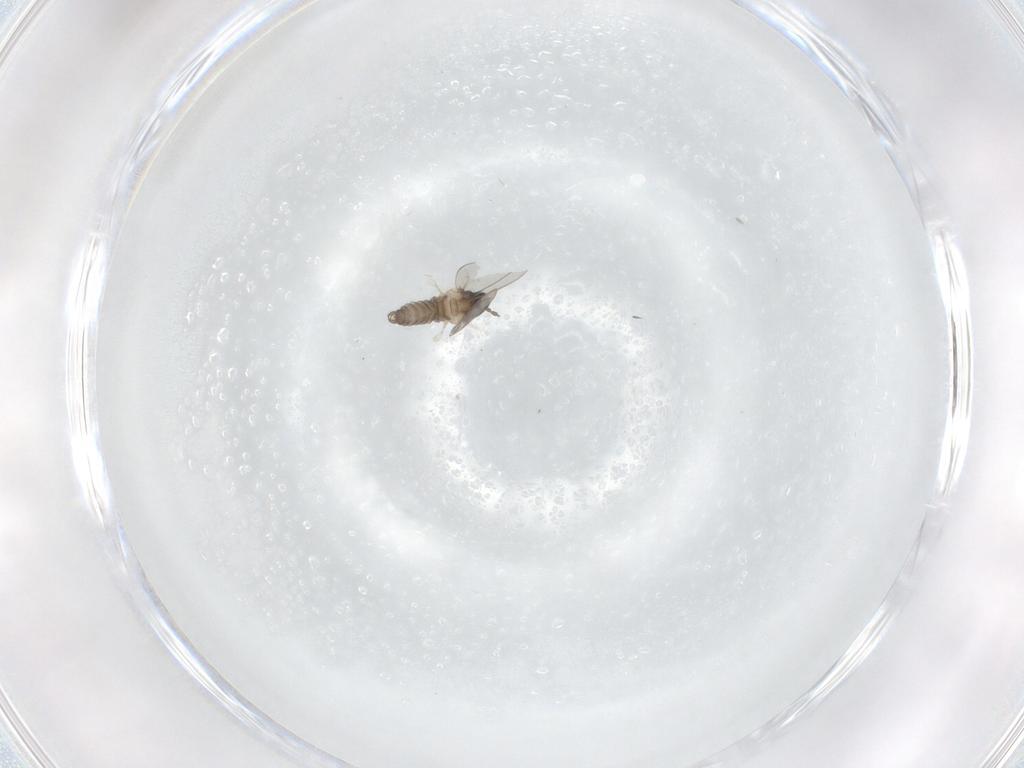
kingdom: Animalia
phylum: Arthropoda
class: Insecta
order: Diptera
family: Cecidomyiidae
